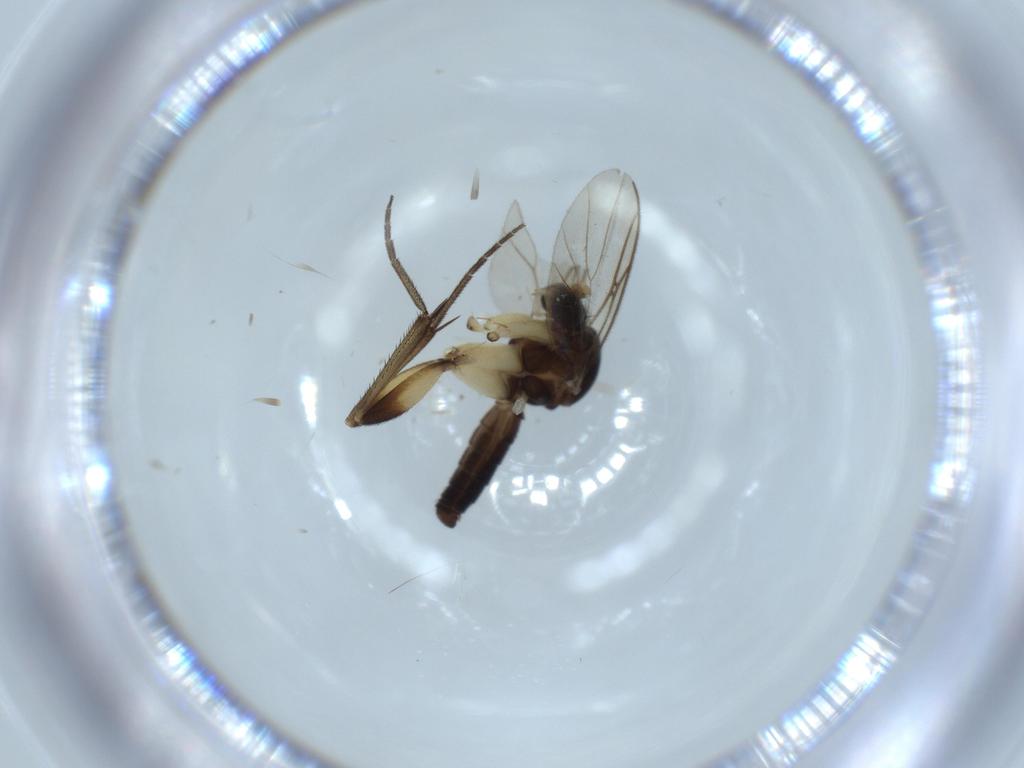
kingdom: Animalia
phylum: Arthropoda
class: Insecta
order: Diptera
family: Mycetophilidae
